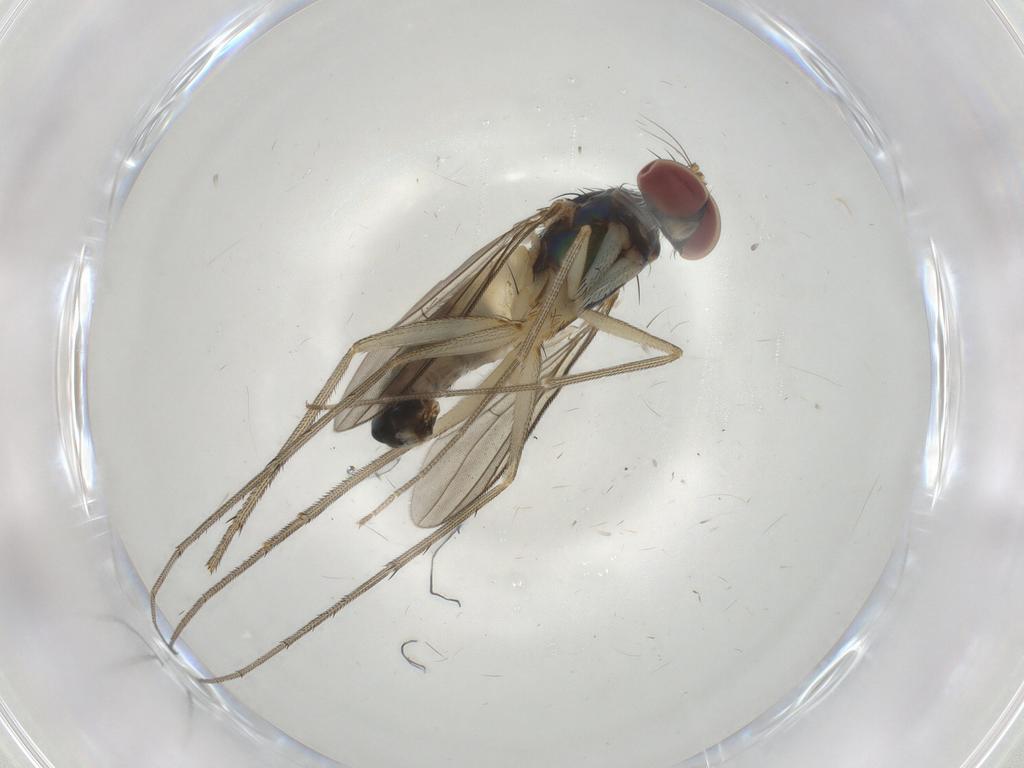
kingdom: Animalia
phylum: Arthropoda
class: Insecta
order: Diptera
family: Dolichopodidae
